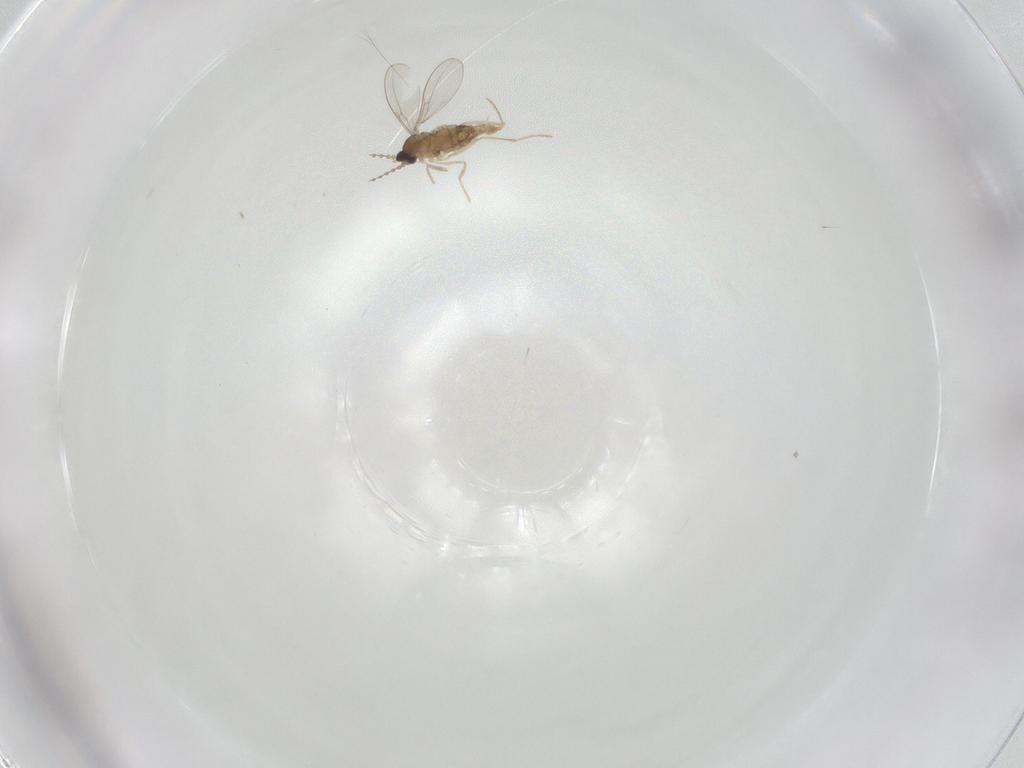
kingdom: Animalia
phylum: Arthropoda
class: Insecta
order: Diptera
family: Cecidomyiidae
